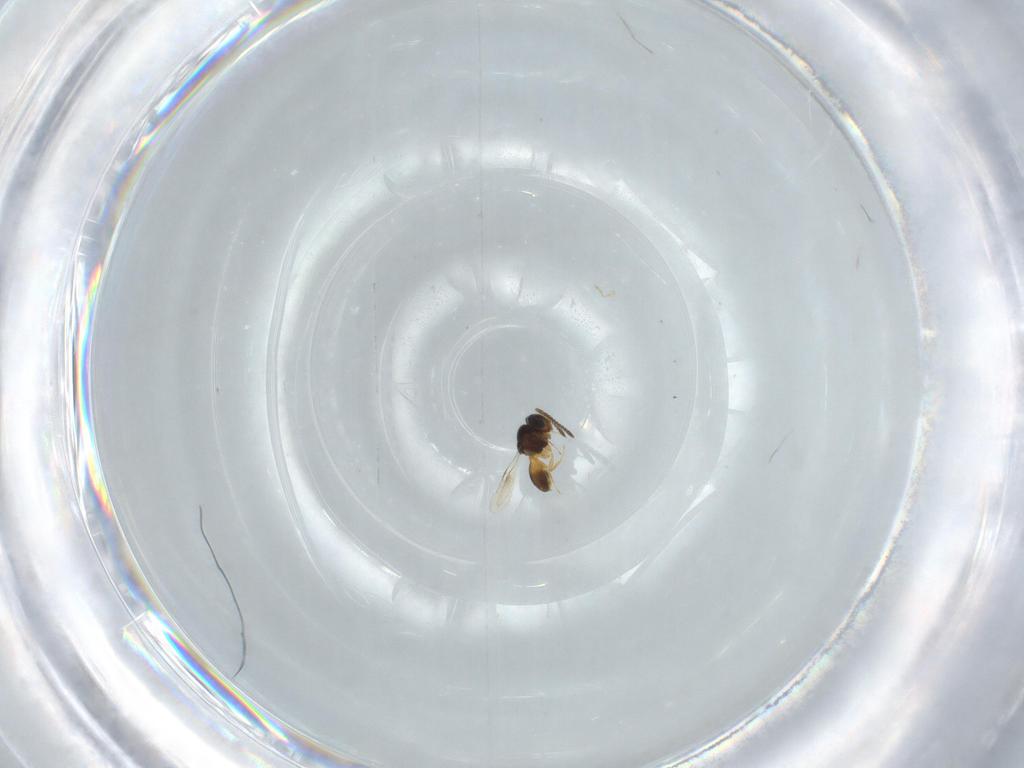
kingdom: Animalia
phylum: Arthropoda
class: Insecta
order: Hymenoptera
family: Scelionidae
